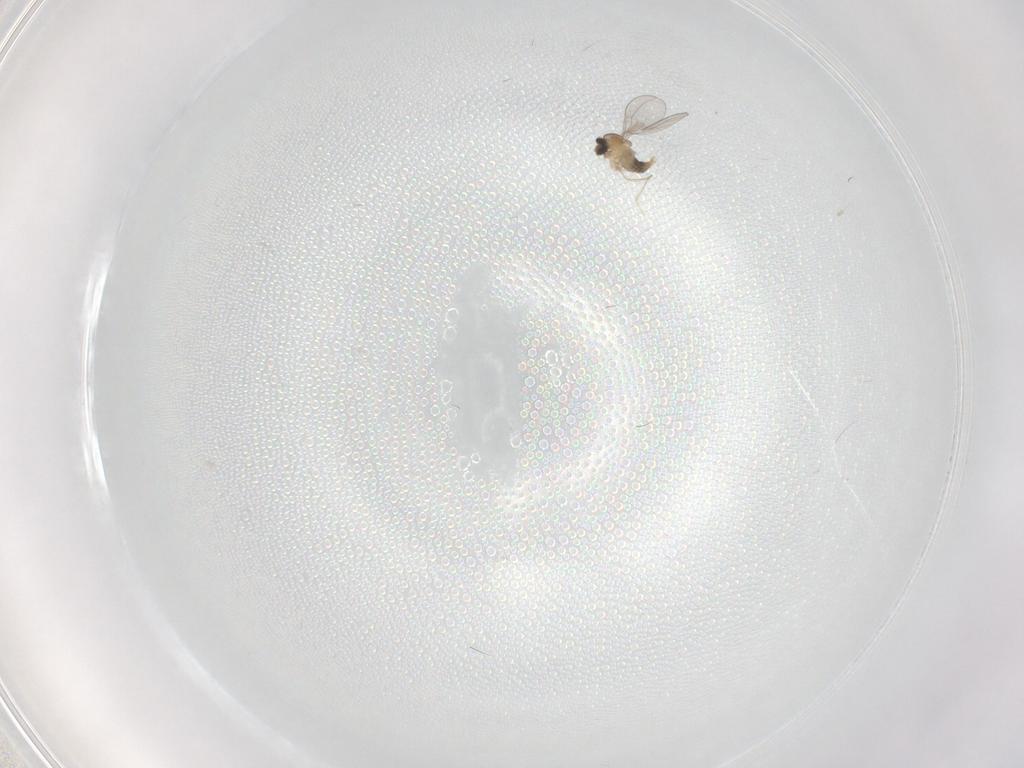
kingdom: Animalia
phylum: Arthropoda
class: Insecta
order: Diptera
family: Cecidomyiidae
